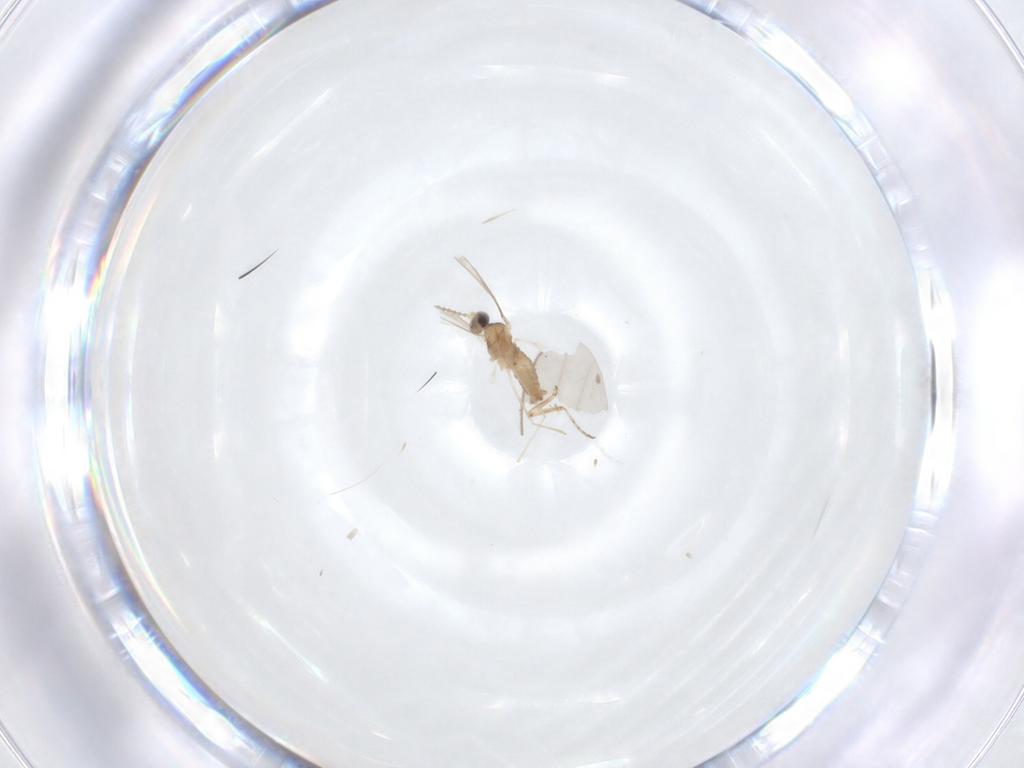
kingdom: Animalia
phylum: Arthropoda
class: Insecta
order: Diptera
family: Cecidomyiidae
